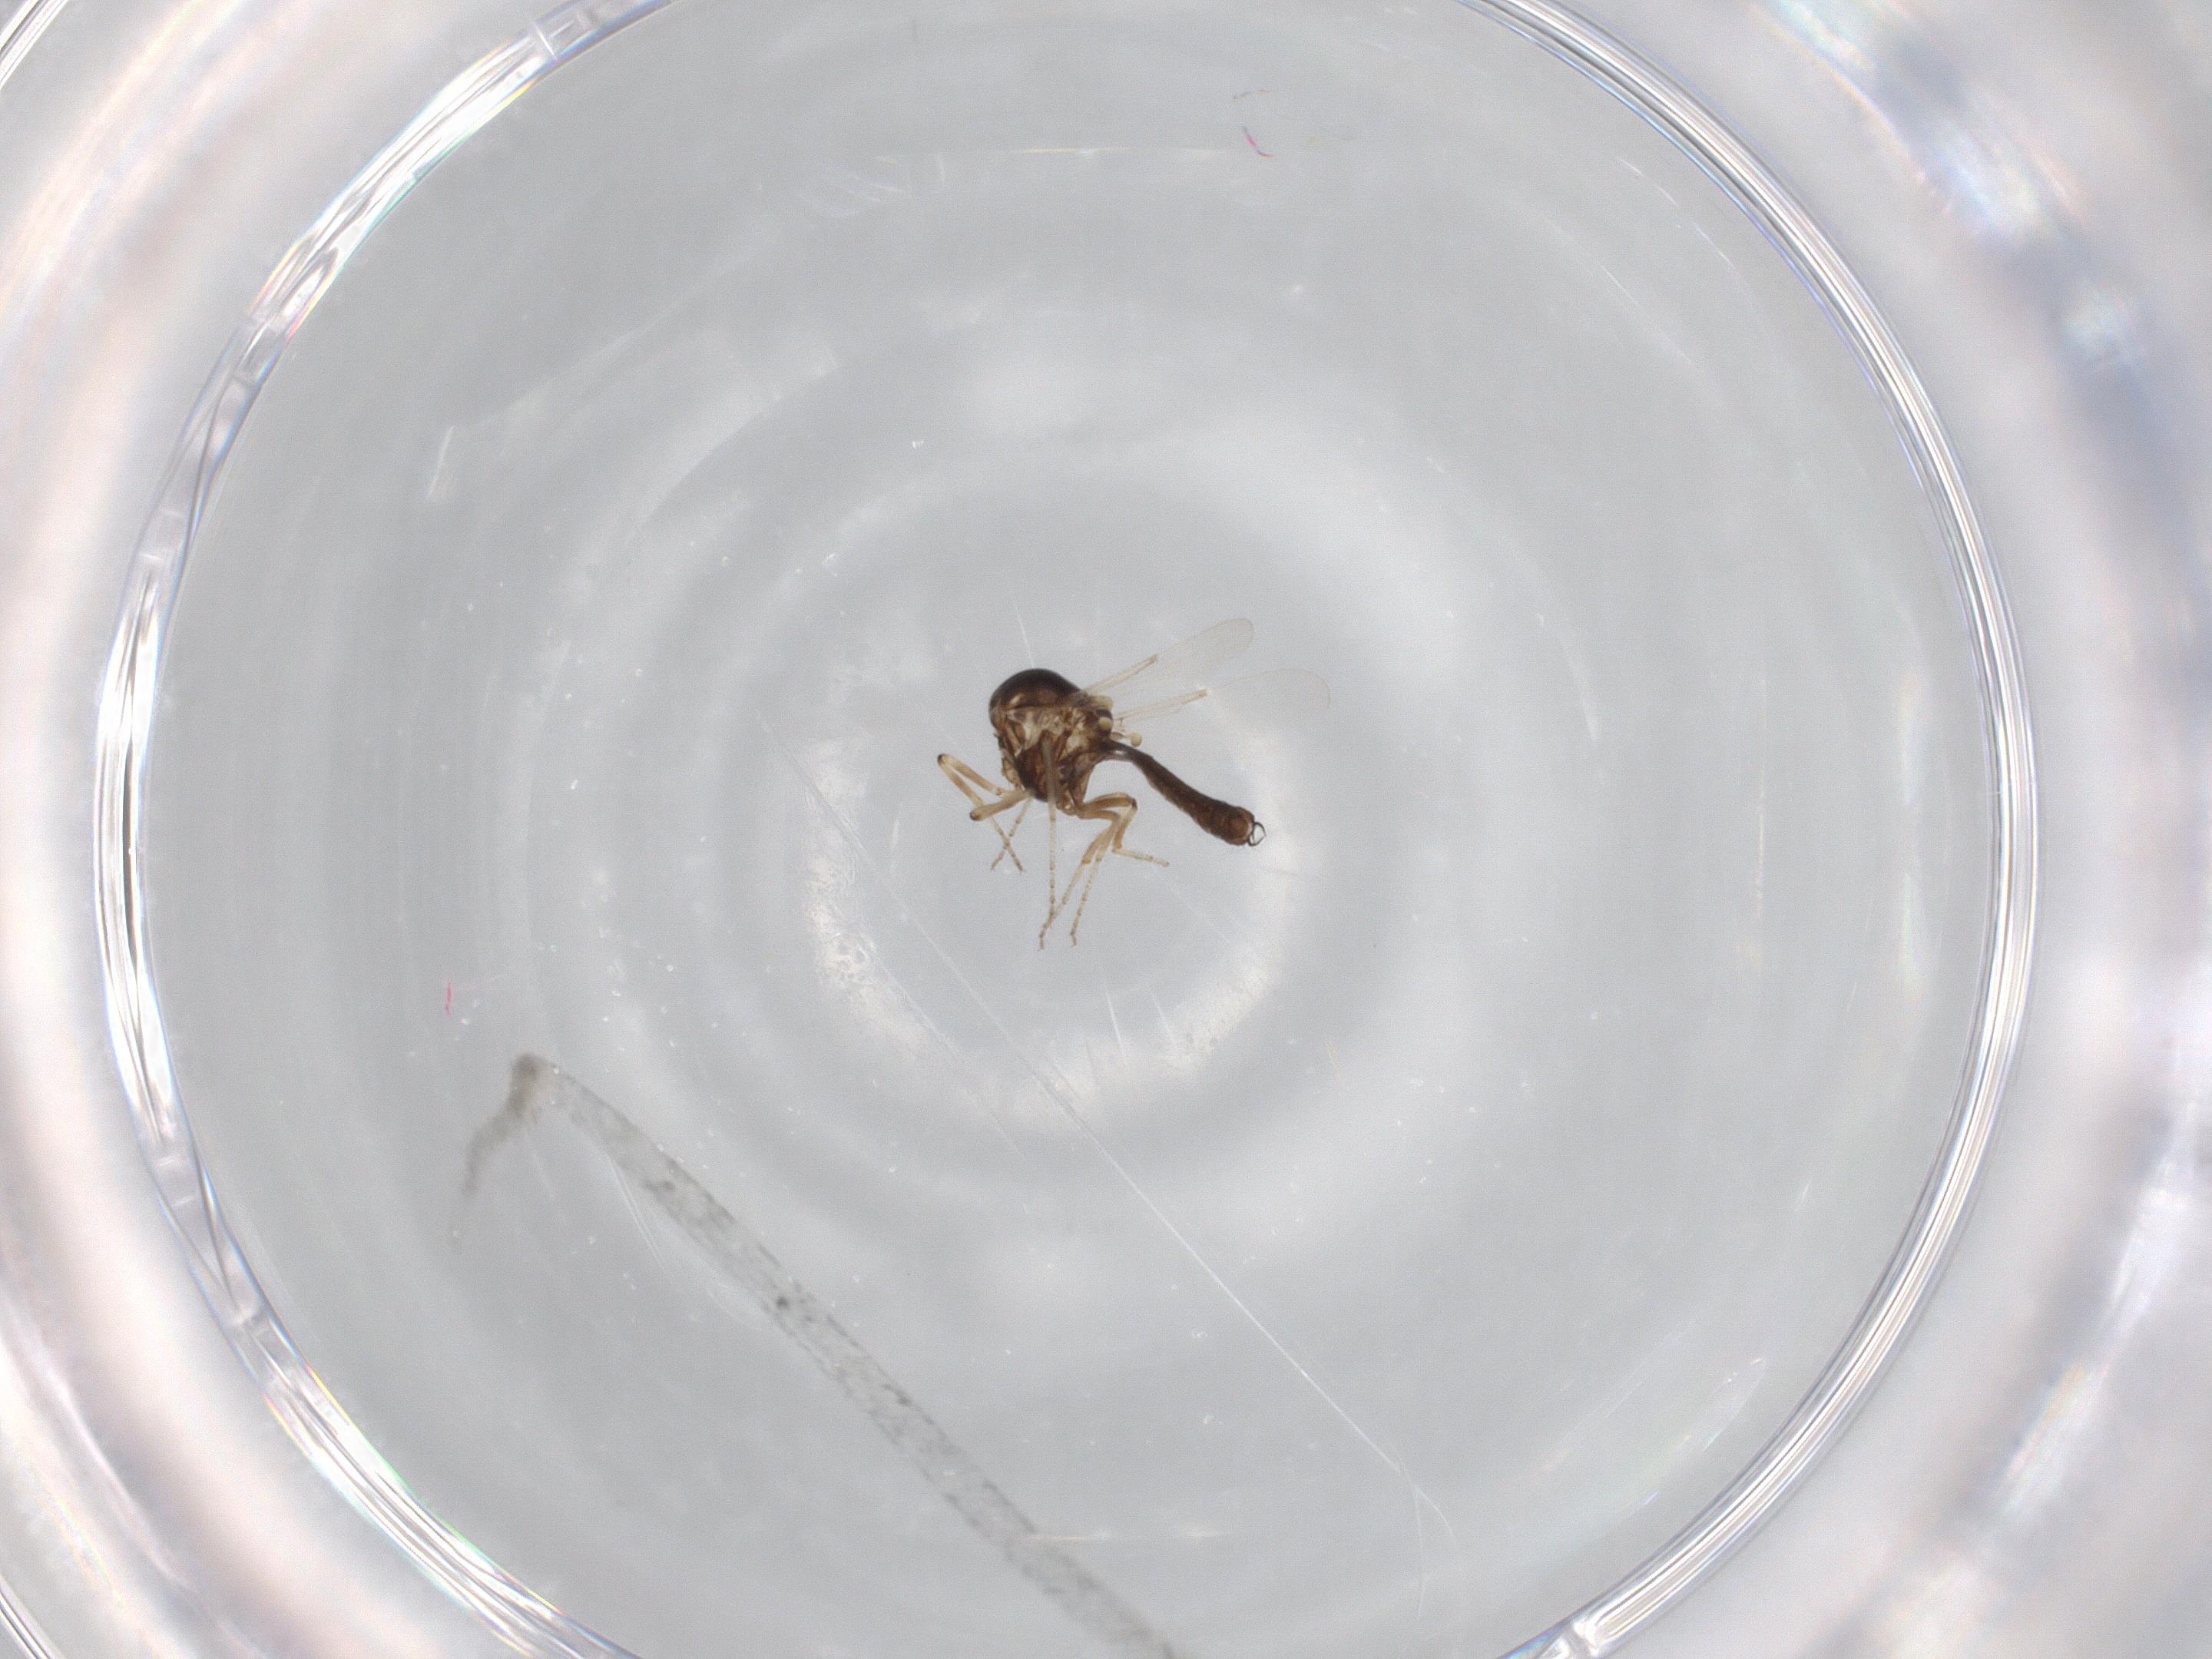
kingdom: Animalia
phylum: Arthropoda
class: Insecta
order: Diptera
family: Ceratopogonidae
